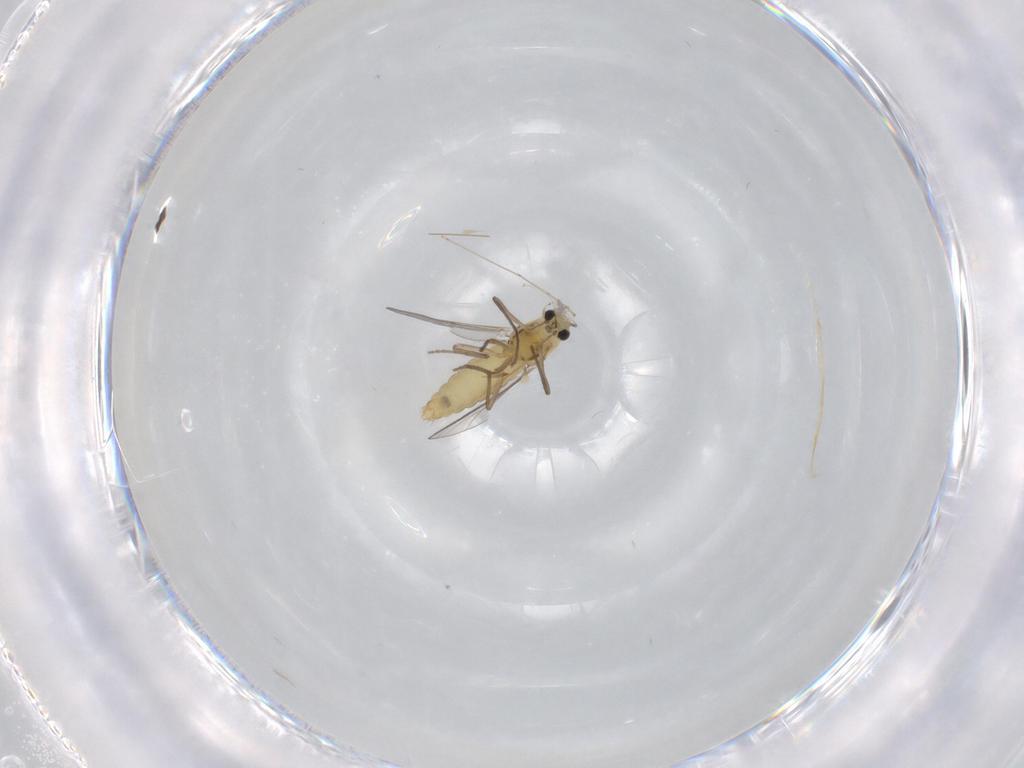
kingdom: Animalia
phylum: Arthropoda
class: Insecta
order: Diptera
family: Chironomidae
